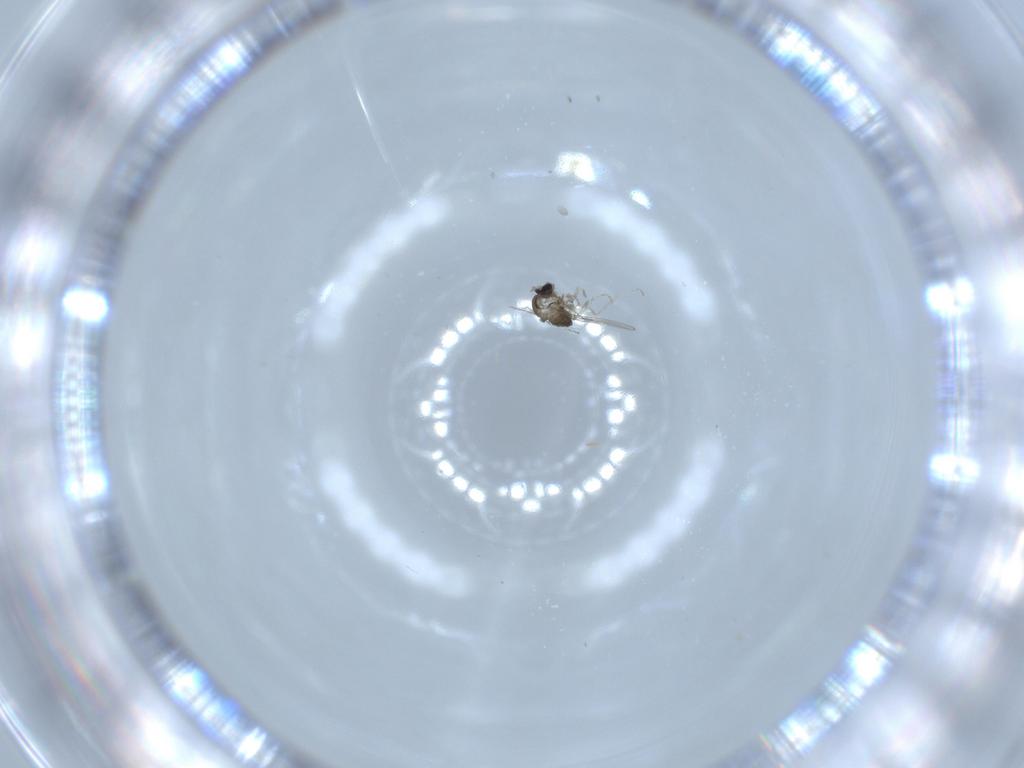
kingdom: Animalia
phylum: Arthropoda
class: Insecta
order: Diptera
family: Cecidomyiidae
